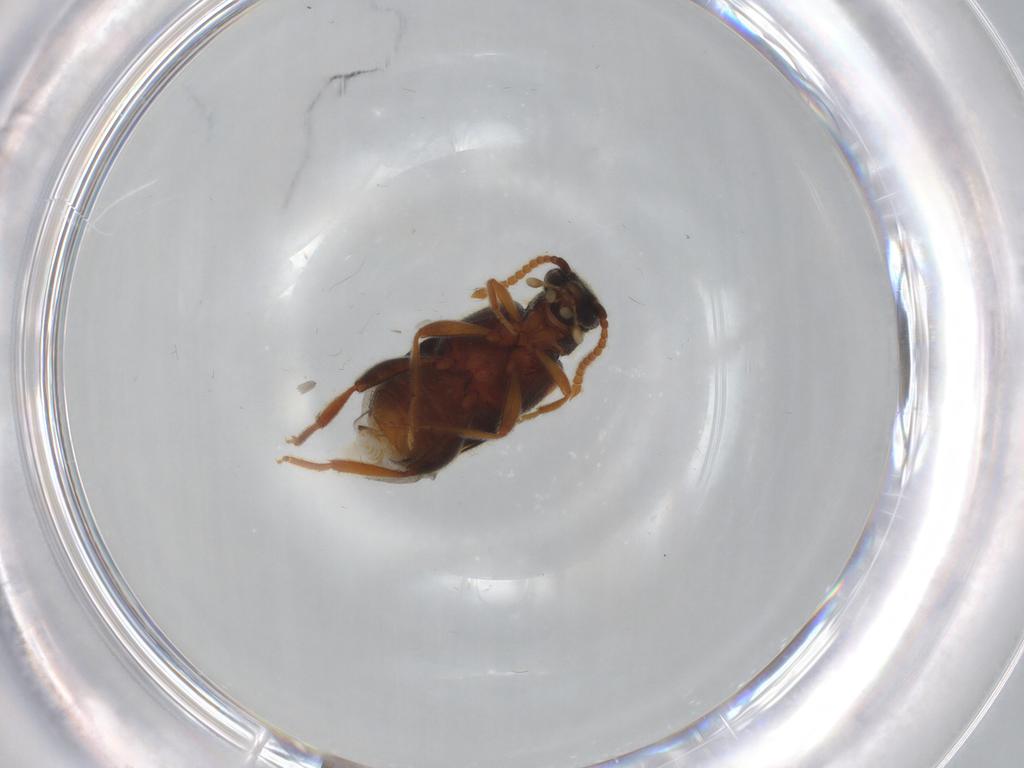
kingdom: Animalia
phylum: Arthropoda
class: Insecta
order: Coleoptera
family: Aderidae
